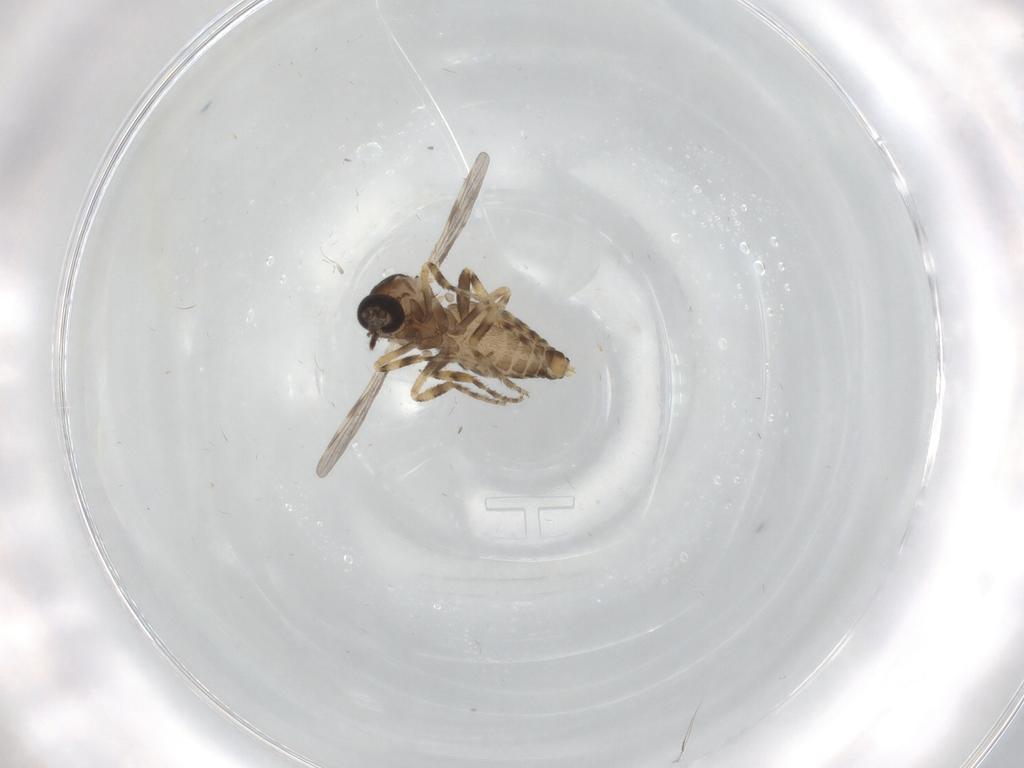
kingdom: Animalia
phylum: Arthropoda
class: Insecta
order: Diptera
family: Ceratopogonidae
